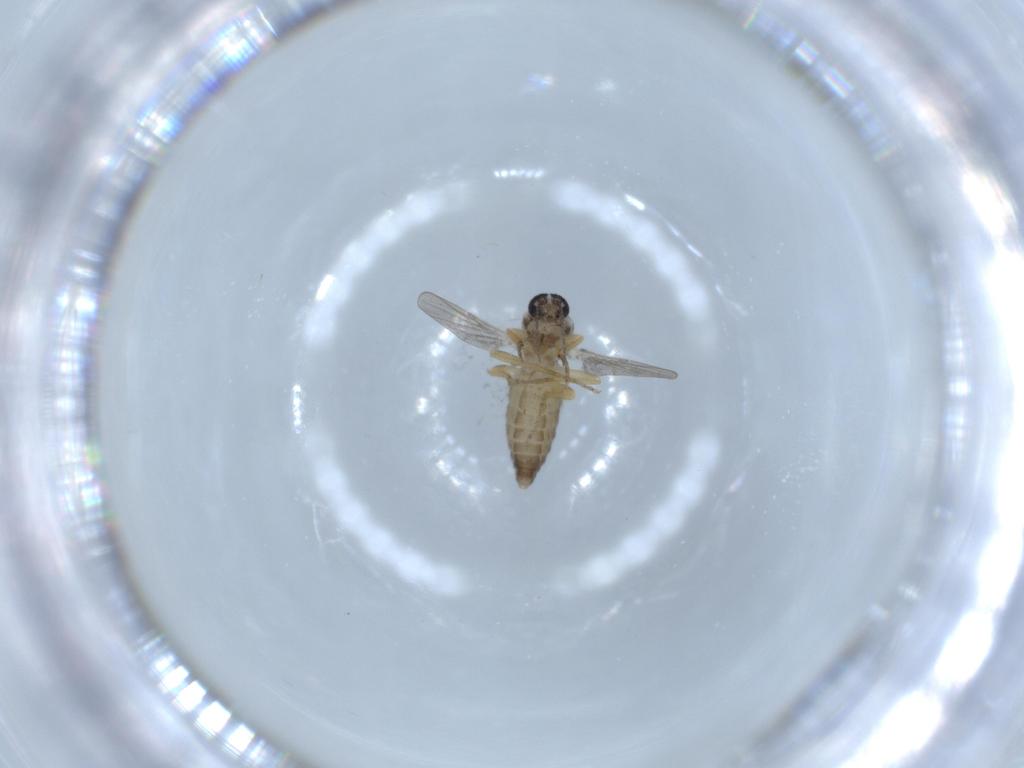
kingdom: Animalia
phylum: Arthropoda
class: Insecta
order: Diptera
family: Ceratopogonidae
